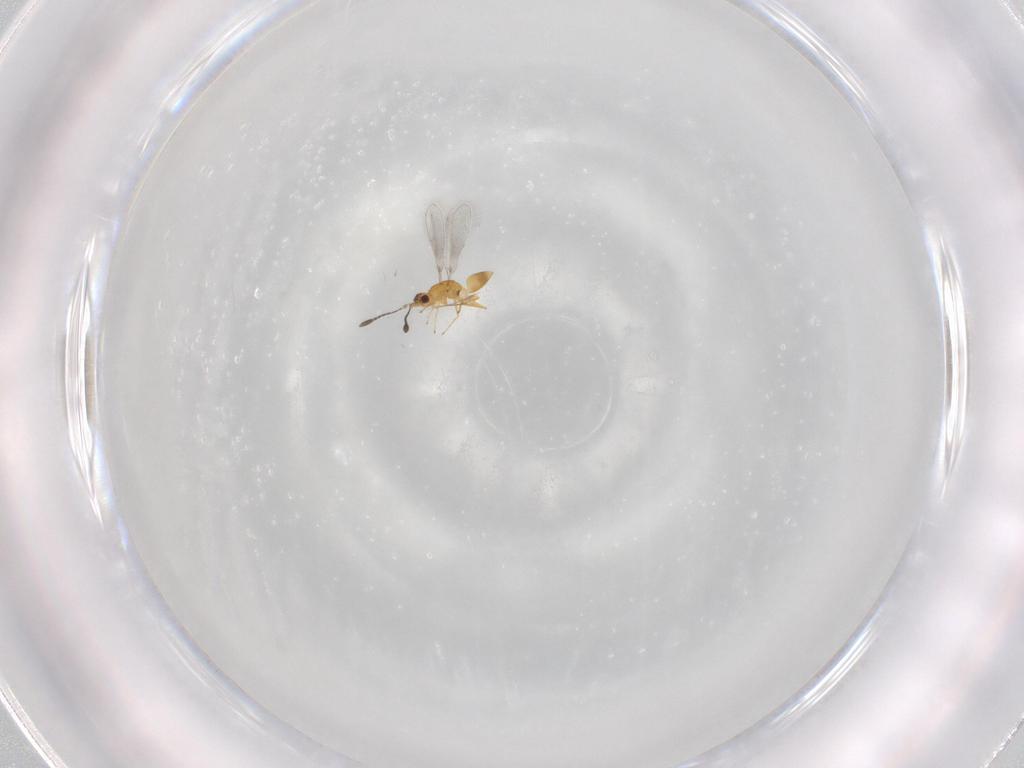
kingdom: Animalia
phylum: Arthropoda
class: Insecta
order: Hymenoptera
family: Mymaridae
